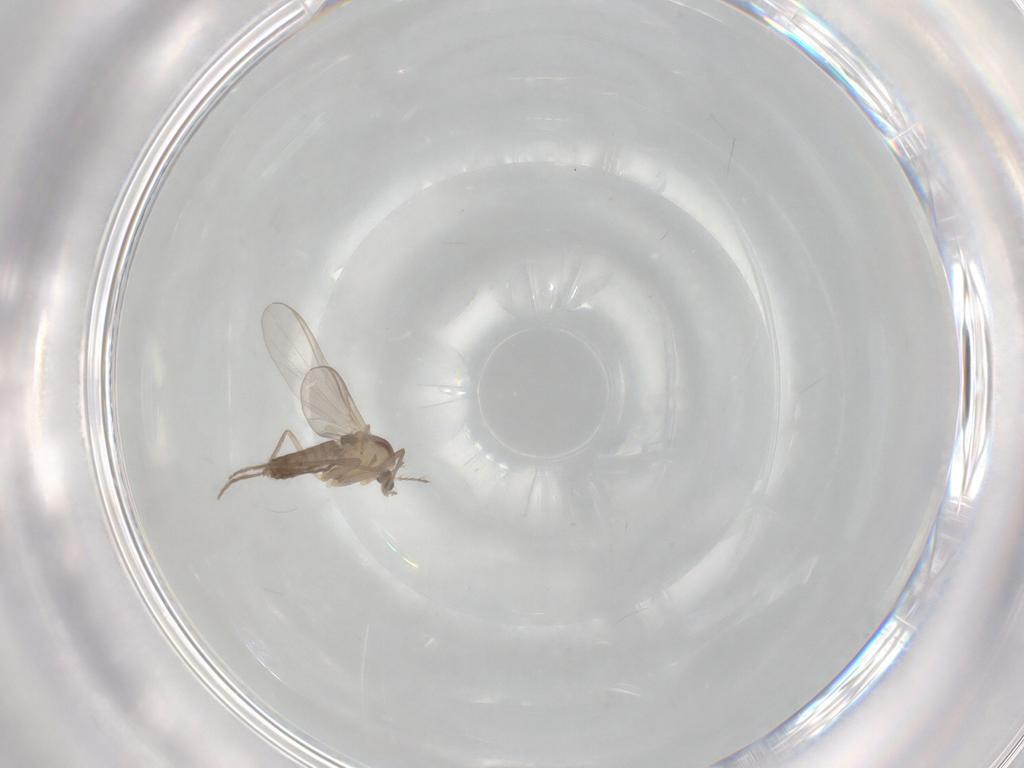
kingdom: Animalia
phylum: Arthropoda
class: Insecta
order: Diptera
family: Chironomidae
